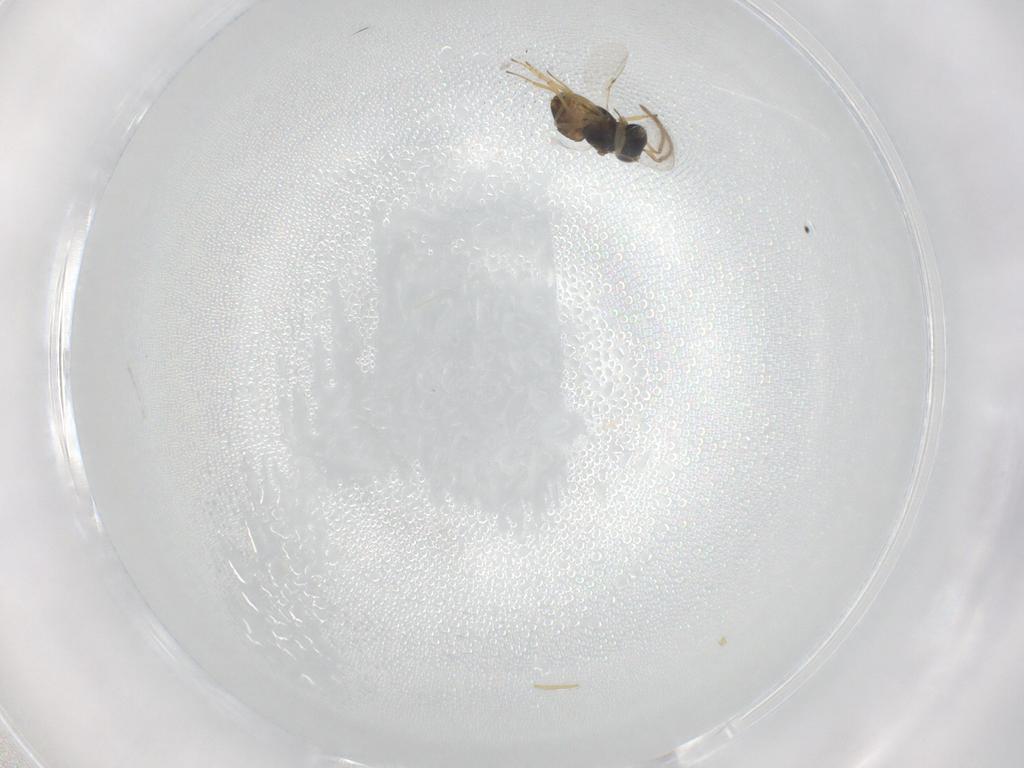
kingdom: Animalia
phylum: Arthropoda
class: Insecta
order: Hymenoptera
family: Encyrtidae
